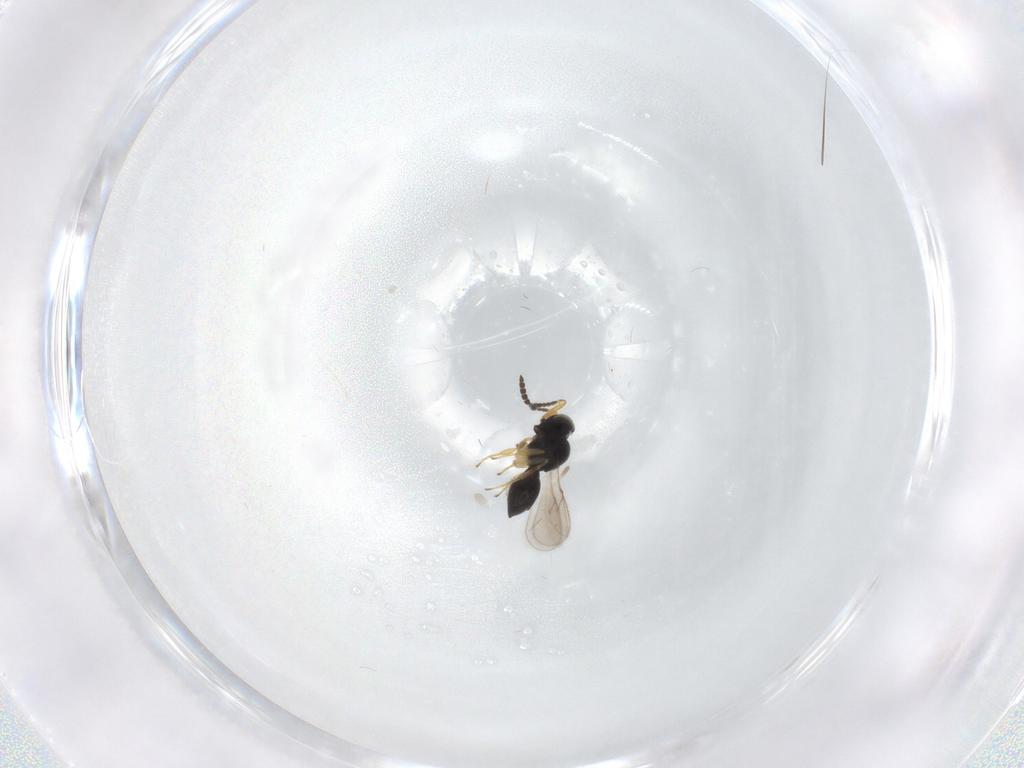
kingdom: Animalia
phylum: Arthropoda
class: Insecta
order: Hymenoptera
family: Scelionidae
